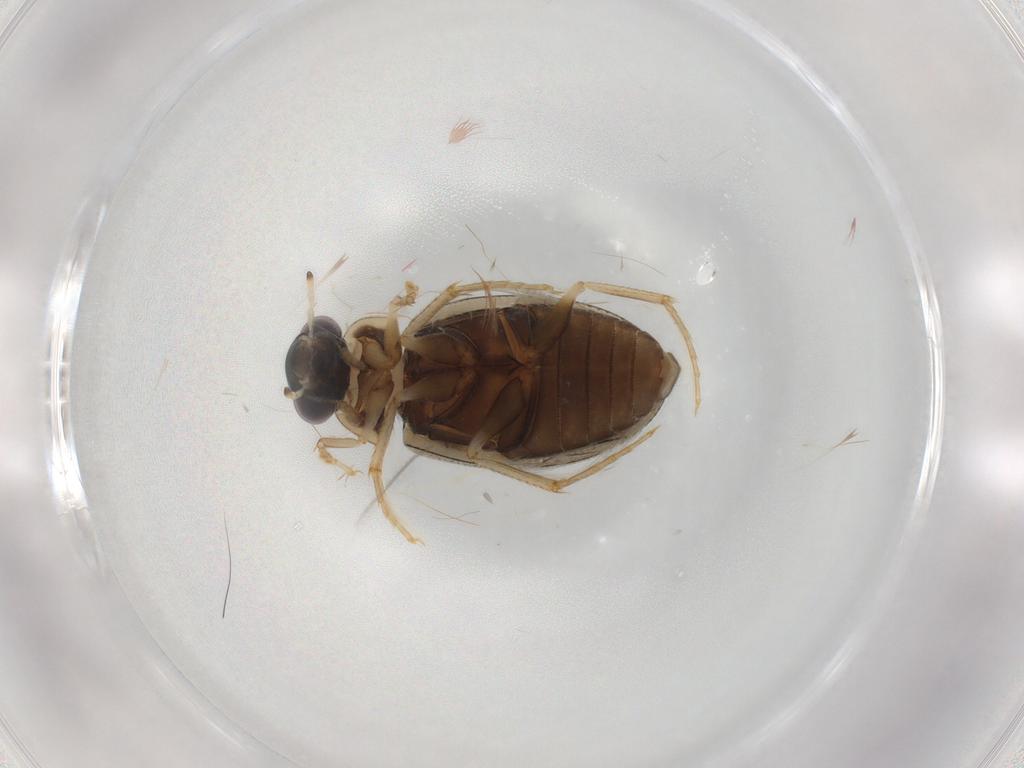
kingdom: Animalia
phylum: Arthropoda
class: Insecta
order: Coleoptera
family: Hydrophilidae
